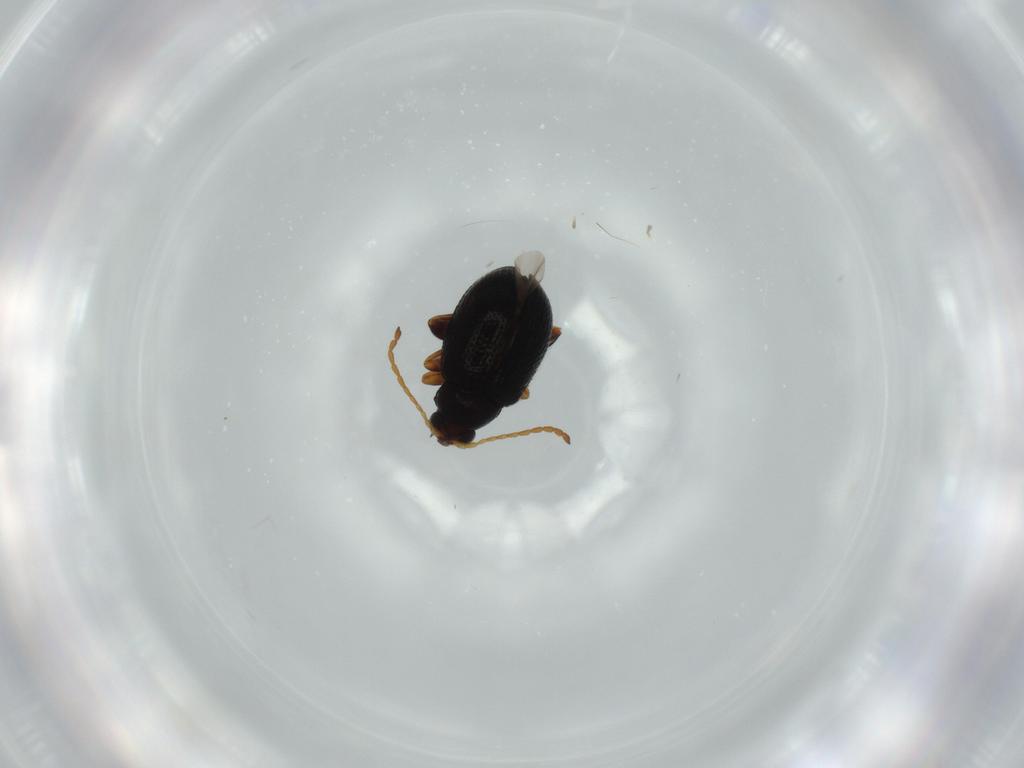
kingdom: Animalia
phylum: Arthropoda
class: Insecta
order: Coleoptera
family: Chrysomelidae
